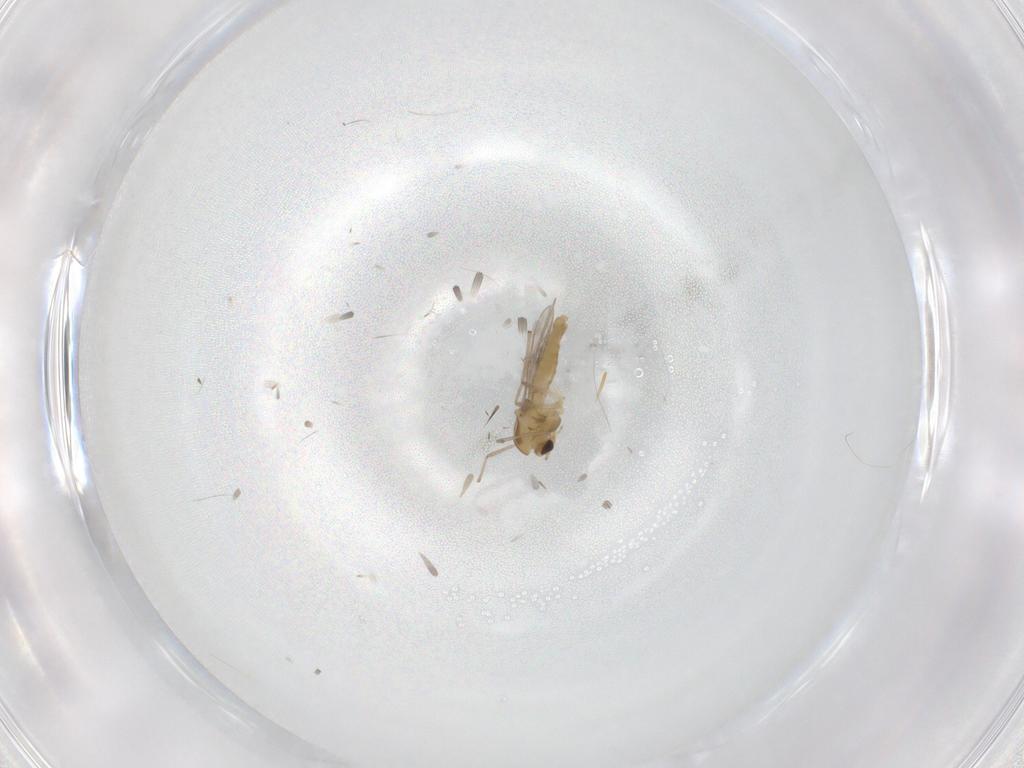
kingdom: Animalia
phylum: Arthropoda
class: Insecta
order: Diptera
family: Chironomidae
